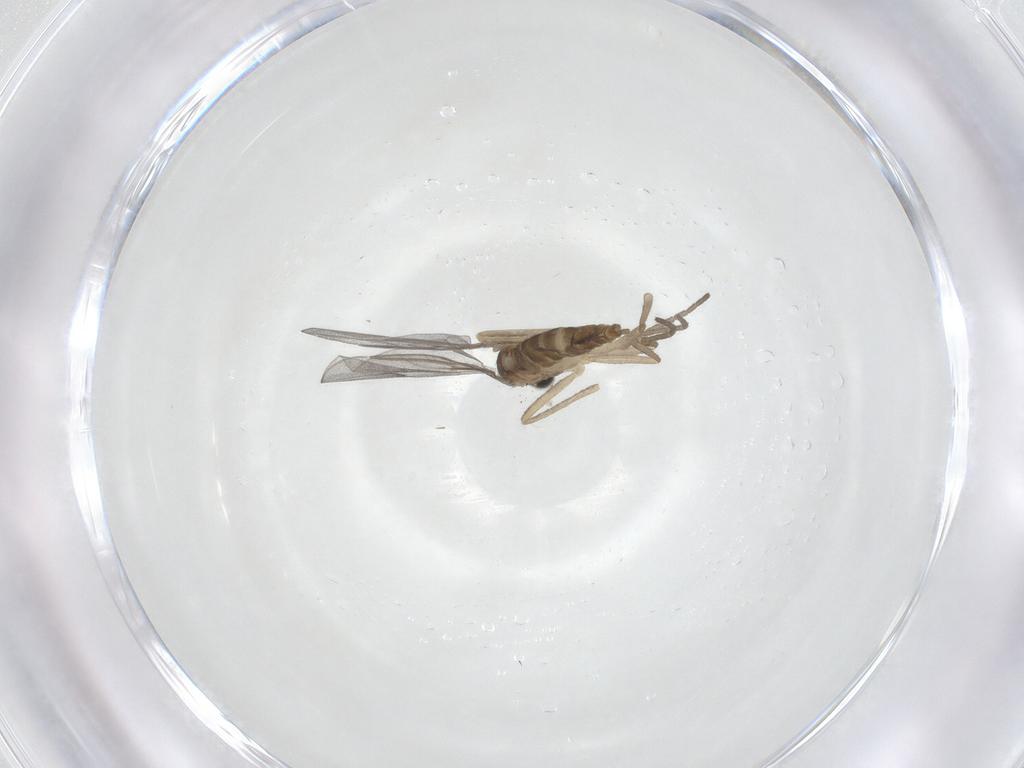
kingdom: Animalia
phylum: Arthropoda
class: Insecta
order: Diptera
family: Cecidomyiidae
